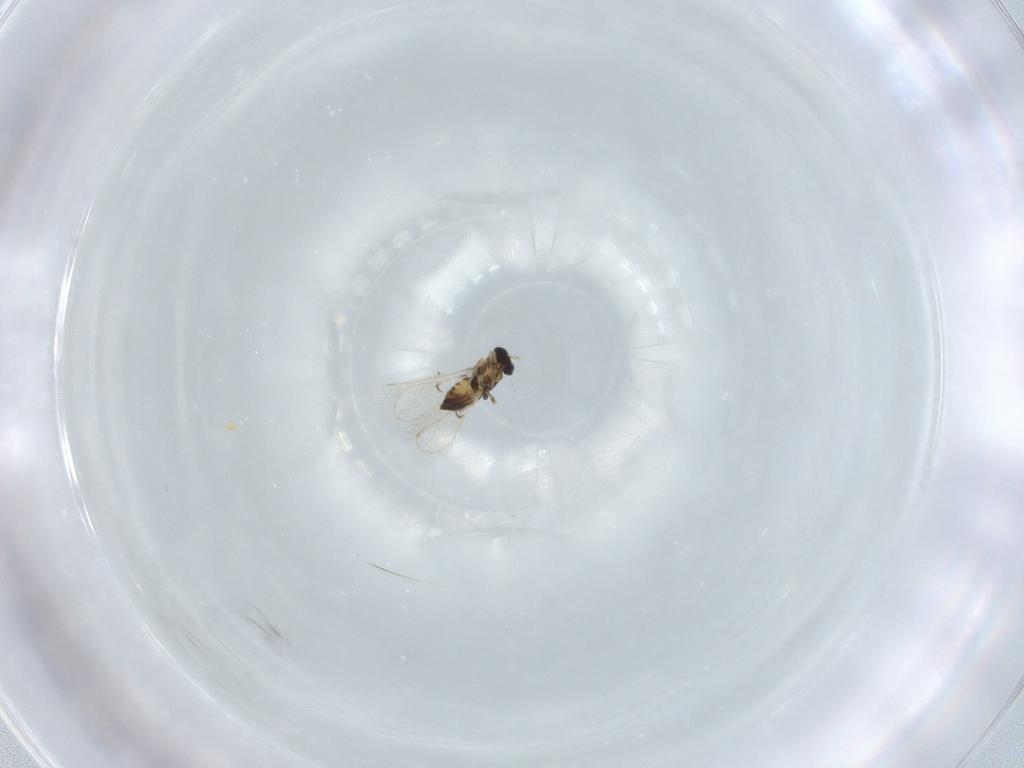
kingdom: Animalia
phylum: Arthropoda
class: Insecta
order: Hymenoptera
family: Trichogrammatidae
